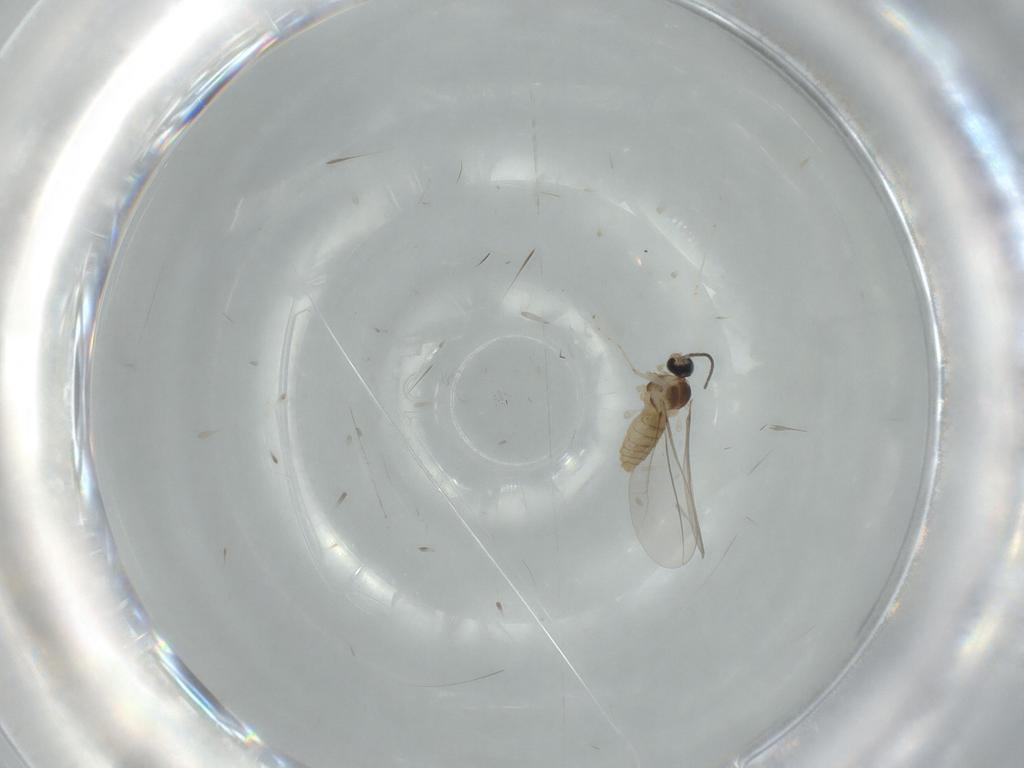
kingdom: Animalia
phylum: Arthropoda
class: Insecta
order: Diptera
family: Cecidomyiidae
